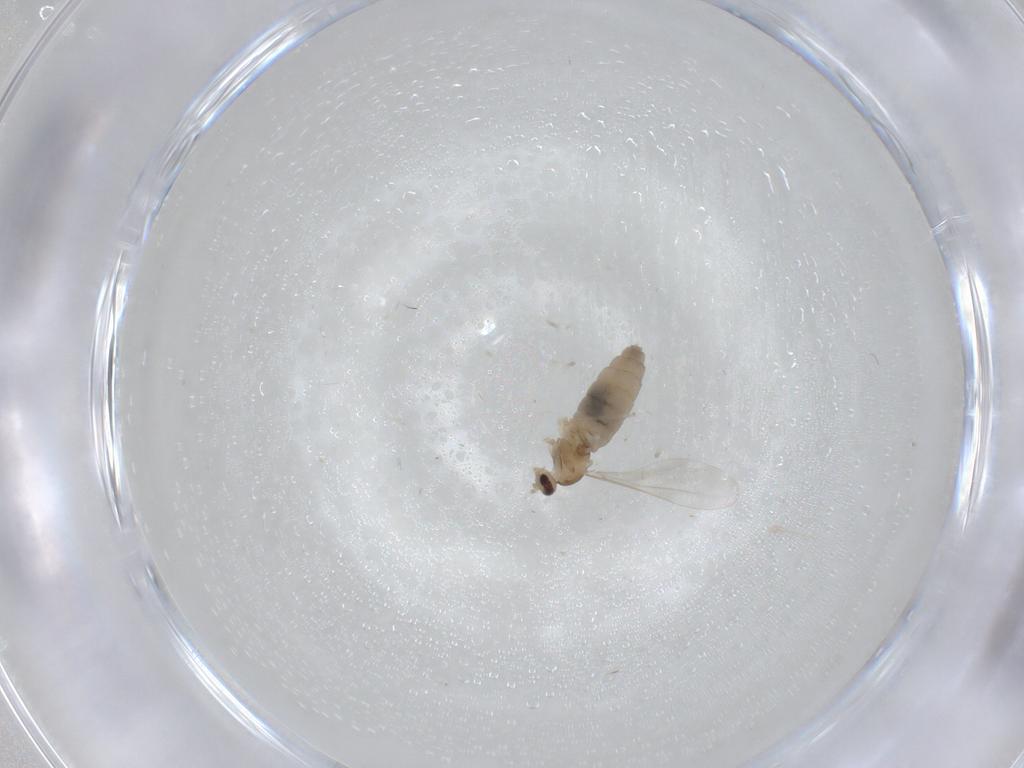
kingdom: Animalia
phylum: Arthropoda
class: Insecta
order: Diptera
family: Cecidomyiidae
